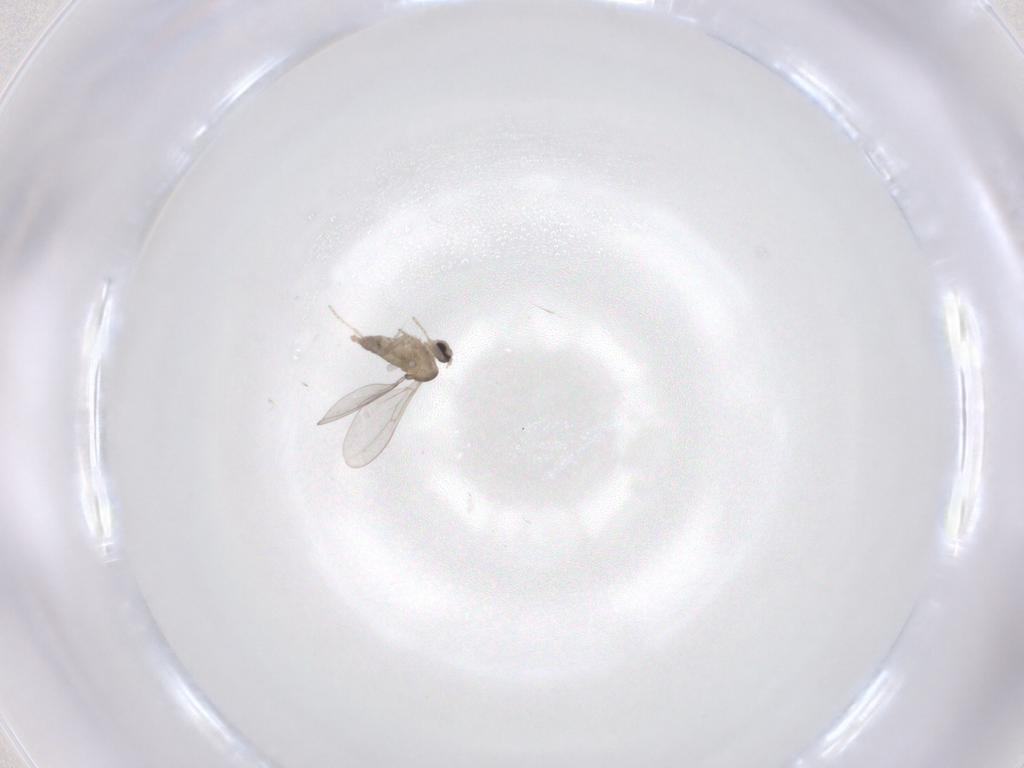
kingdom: Animalia
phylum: Arthropoda
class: Insecta
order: Diptera
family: Cecidomyiidae
